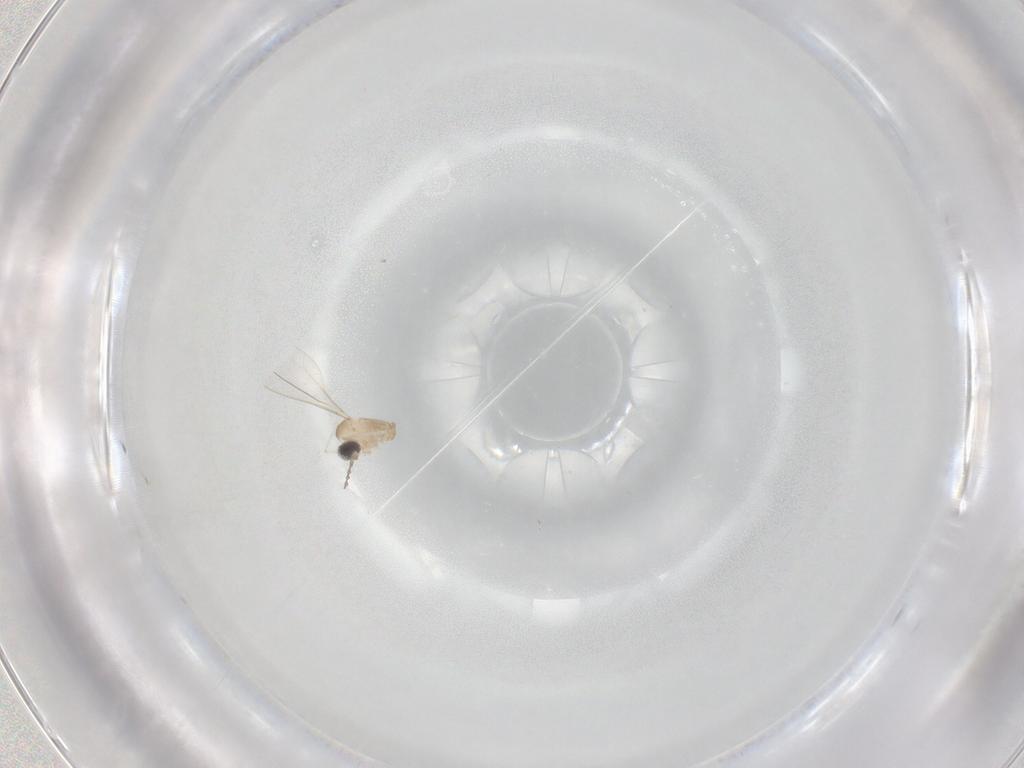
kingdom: Animalia
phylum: Arthropoda
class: Insecta
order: Diptera
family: Cecidomyiidae
